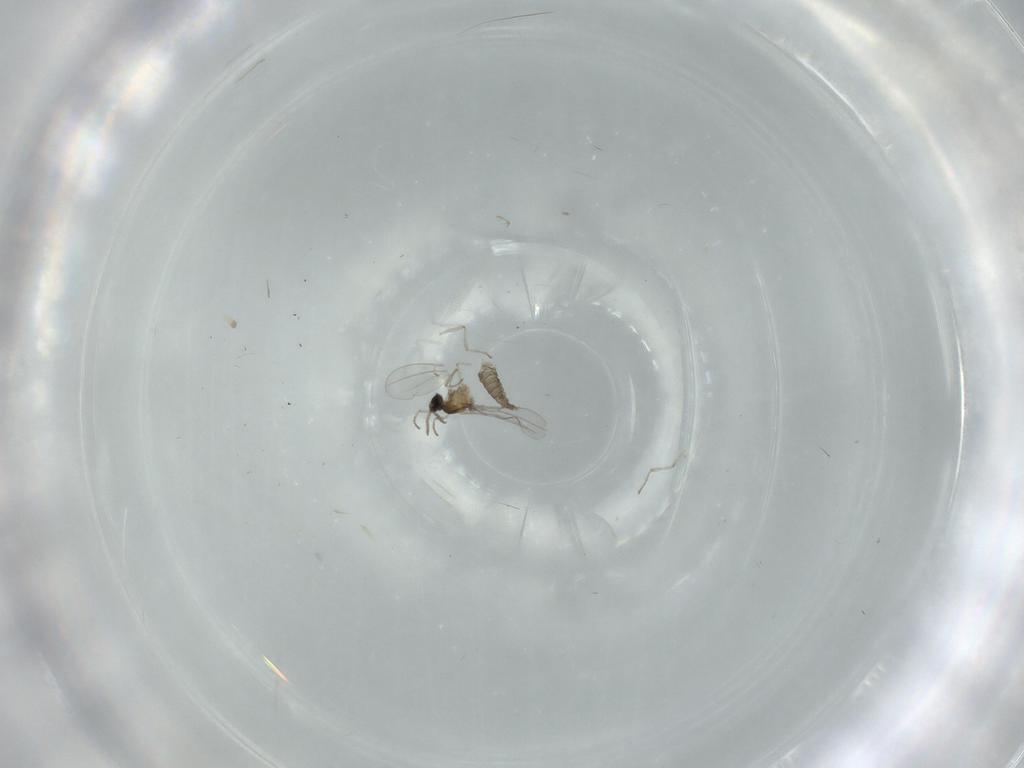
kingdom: Animalia
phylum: Arthropoda
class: Insecta
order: Diptera
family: Cecidomyiidae
